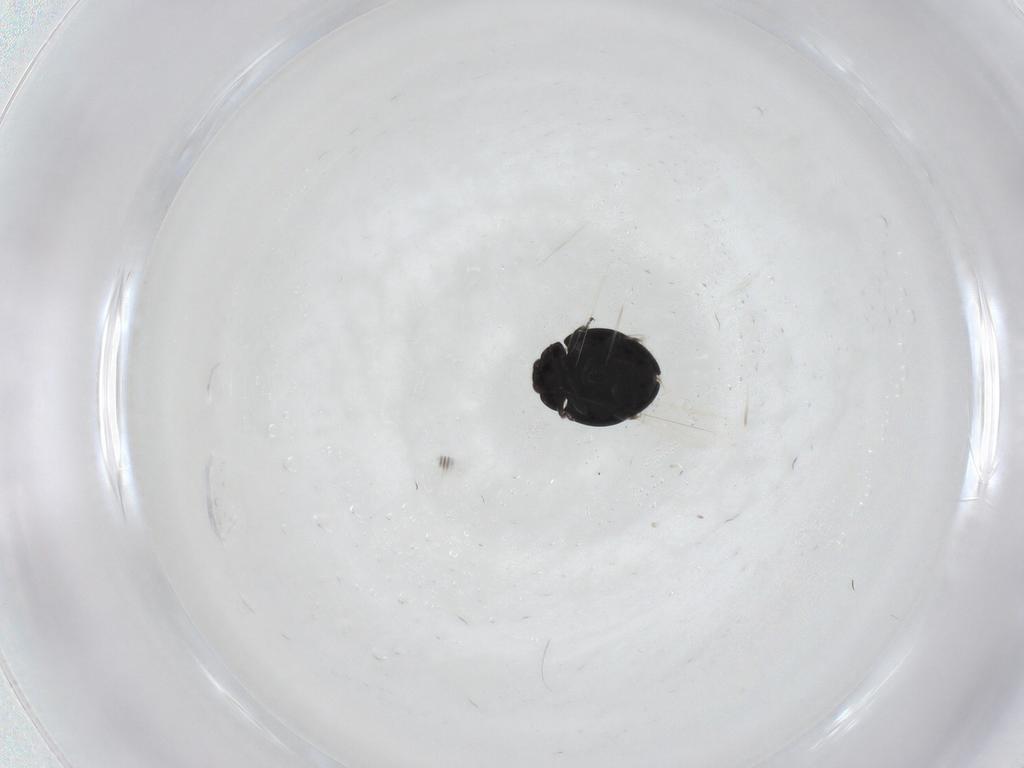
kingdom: Animalia
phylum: Arthropoda
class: Insecta
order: Coleoptera
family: Coccinellidae
